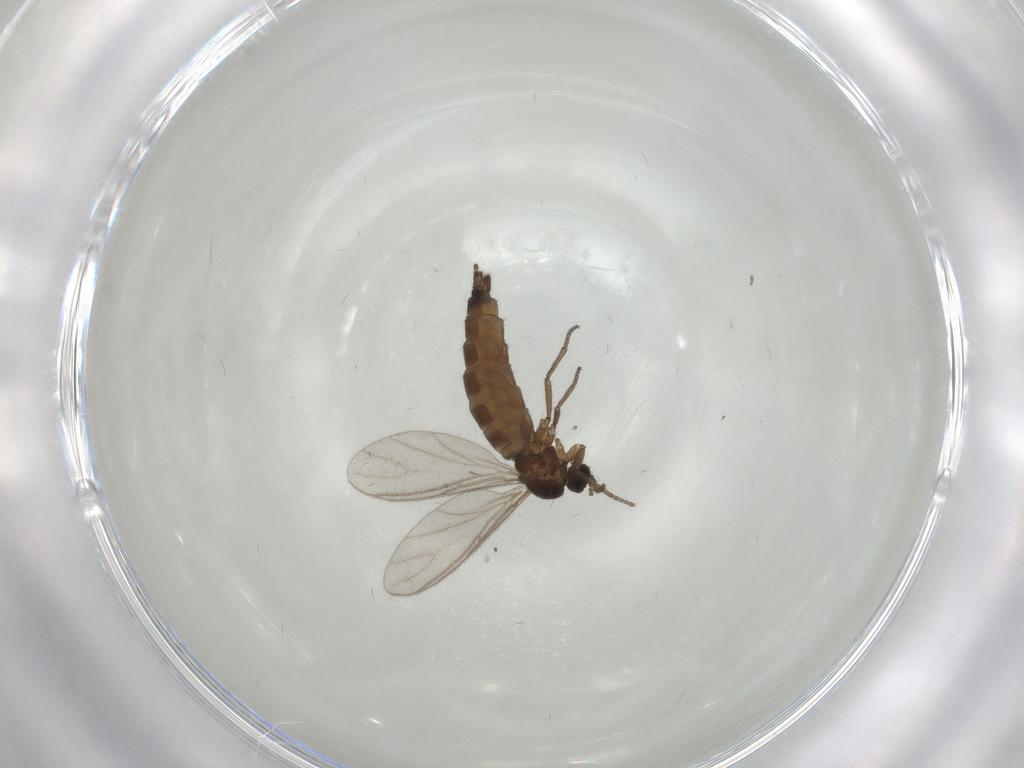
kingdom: Animalia
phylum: Arthropoda
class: Insecta
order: Diptera
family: Sciaridae
